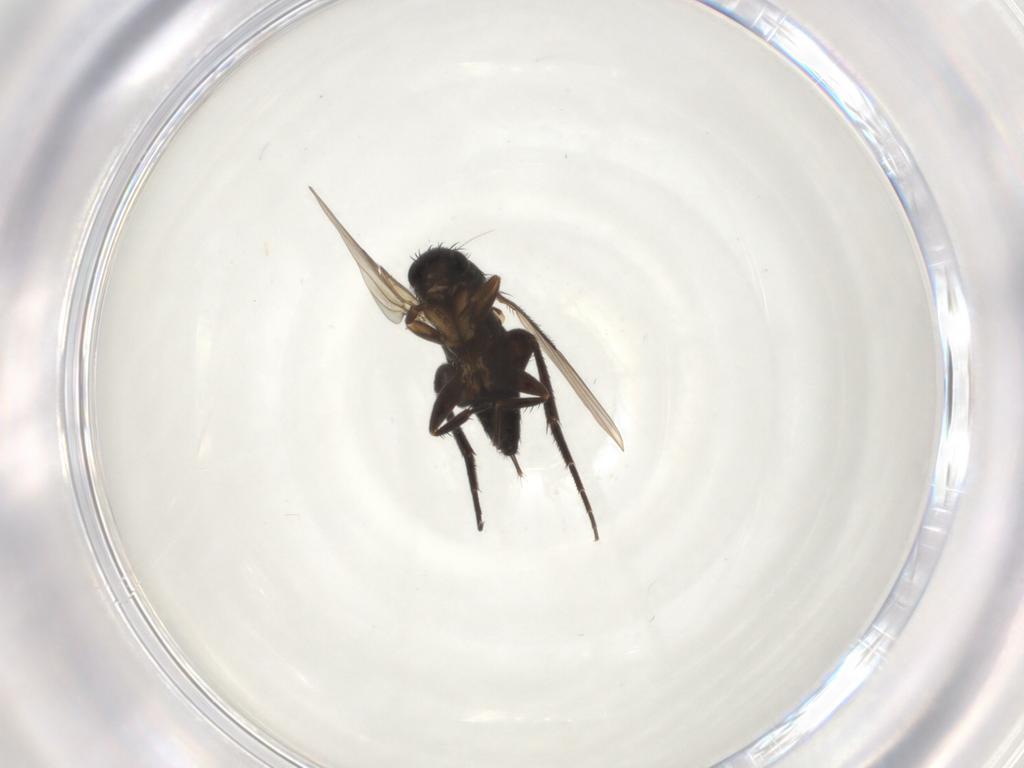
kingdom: Animalia
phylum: Arthropoda
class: Insecta
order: Diptera
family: Phoridae
